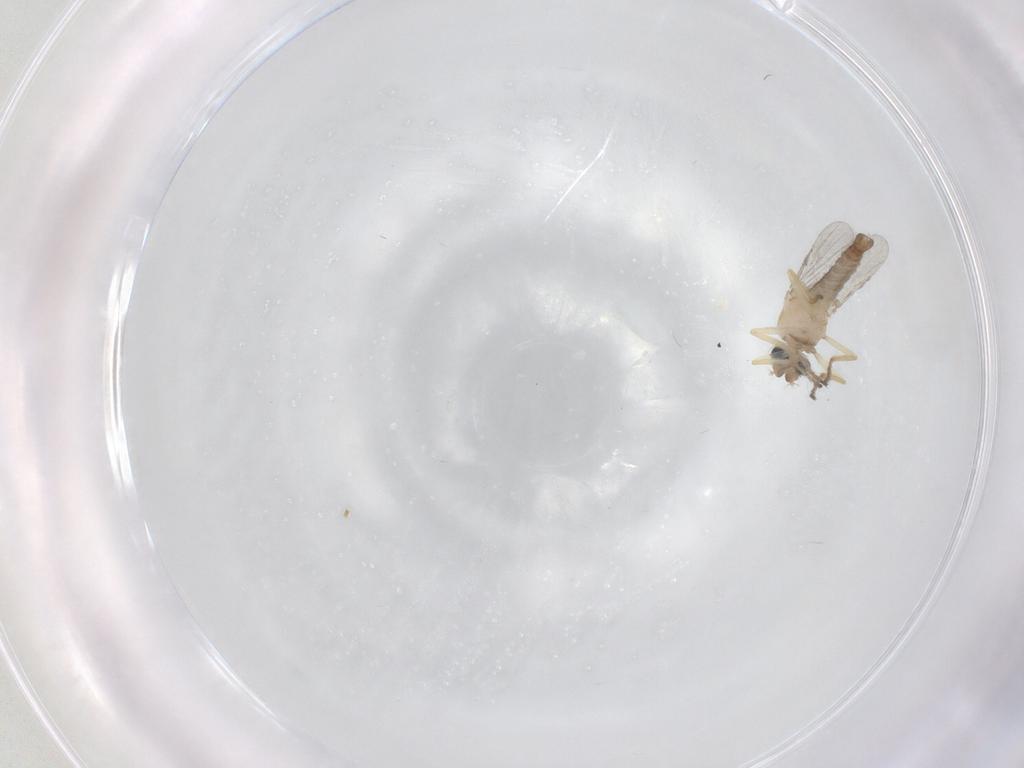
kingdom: Animalia
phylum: Arthropoda
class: Insecta
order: Diptera
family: Ceratopogonidae
